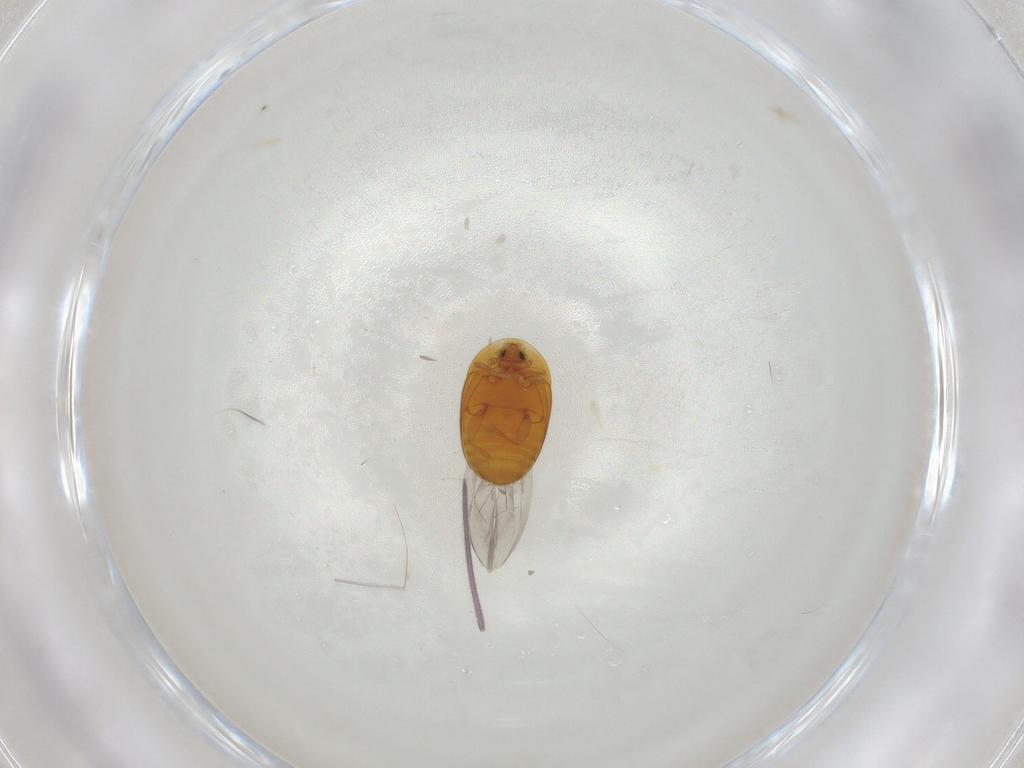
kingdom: Animalia
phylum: Arthropoda
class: Insecta
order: Coleoptera
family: Corylophidae
